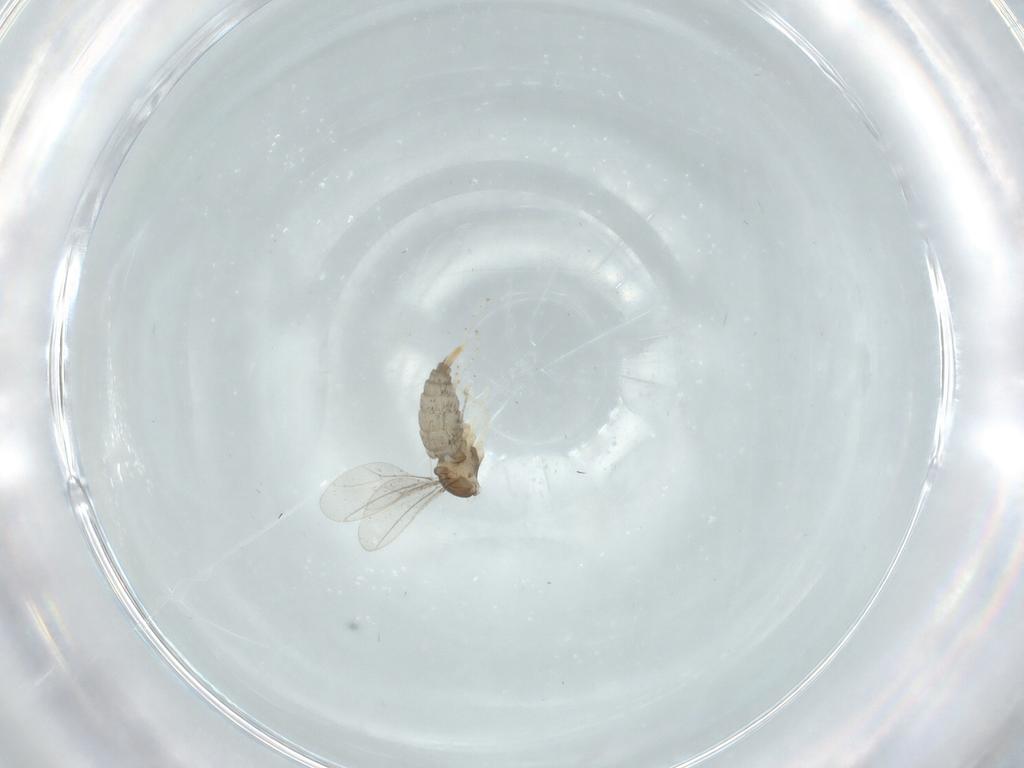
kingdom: Animalia
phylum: Arthropoda
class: Insecta
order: Diptera
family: Cecidomyiidae
